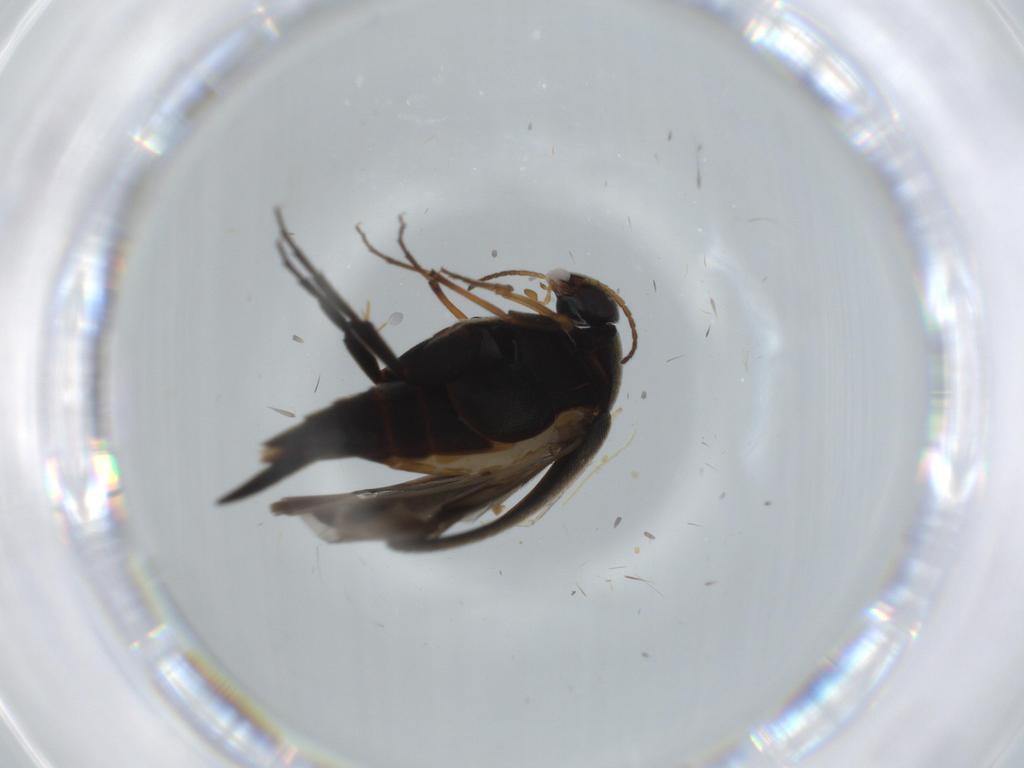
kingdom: Animalia
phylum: Arthropoda
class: Insecta
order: Coleoptera
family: Mordellidae
